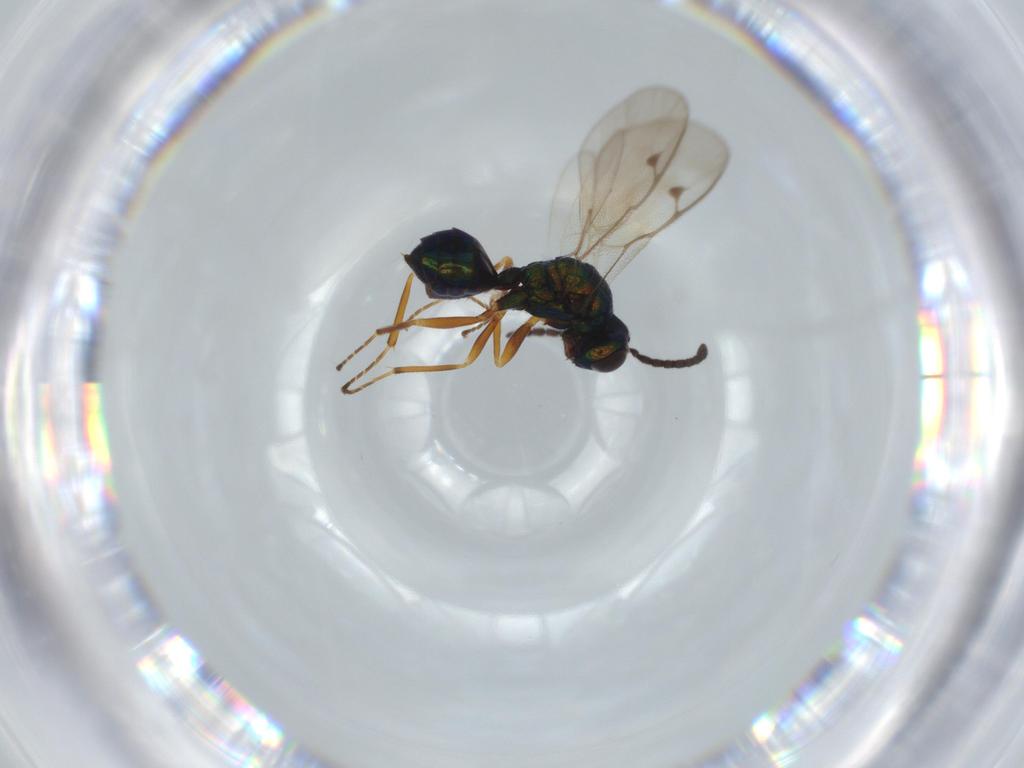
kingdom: Animalia
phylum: Arthropoda
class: Insecta
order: Hymenoptera
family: Pteromalidae
